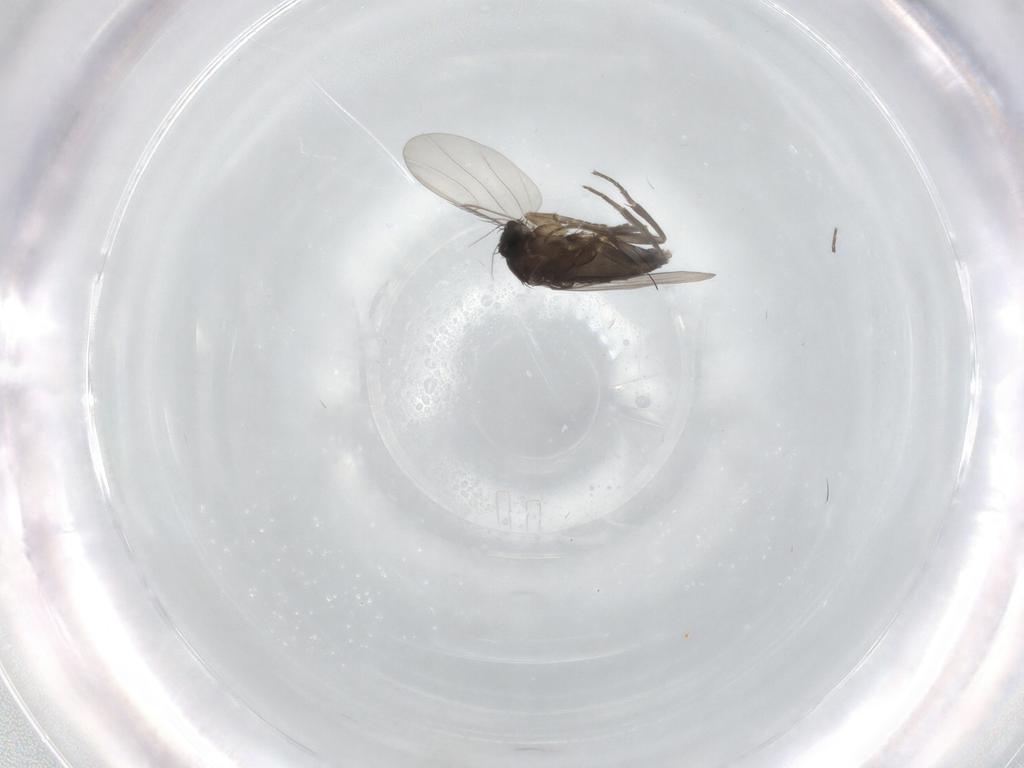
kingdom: Animalia
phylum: Arthropoda
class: Insecta
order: Diptera
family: Phoridae
